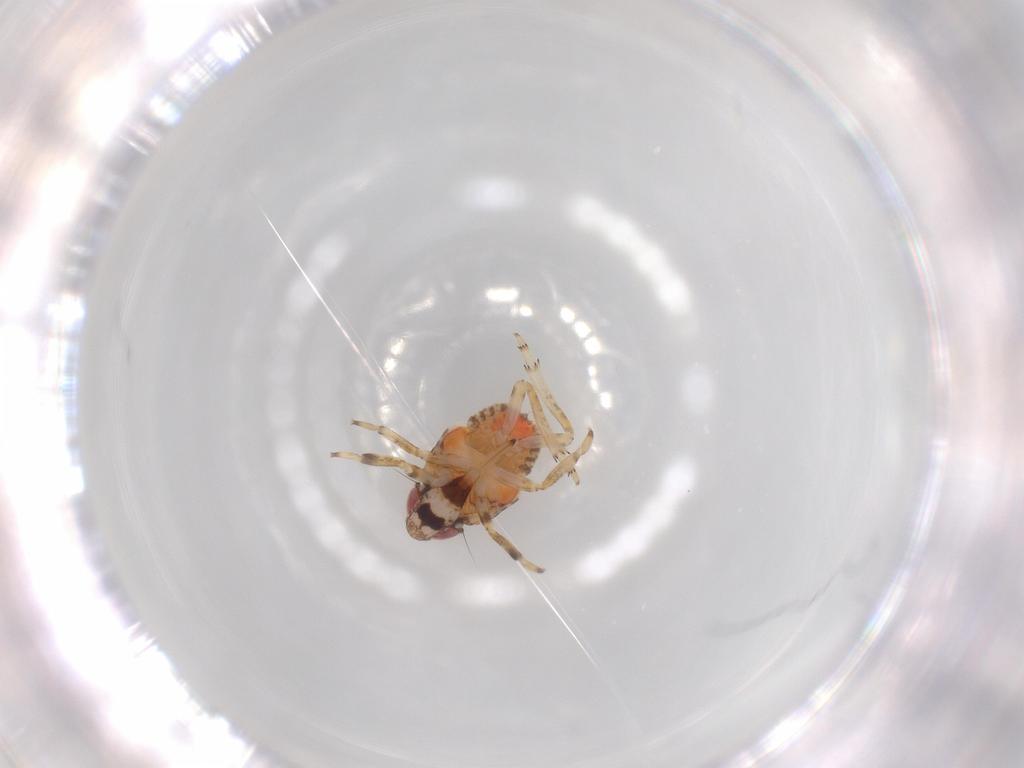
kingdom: Animalia
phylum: Arthropoda
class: Insecta
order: Hemiptera
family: Issidae
